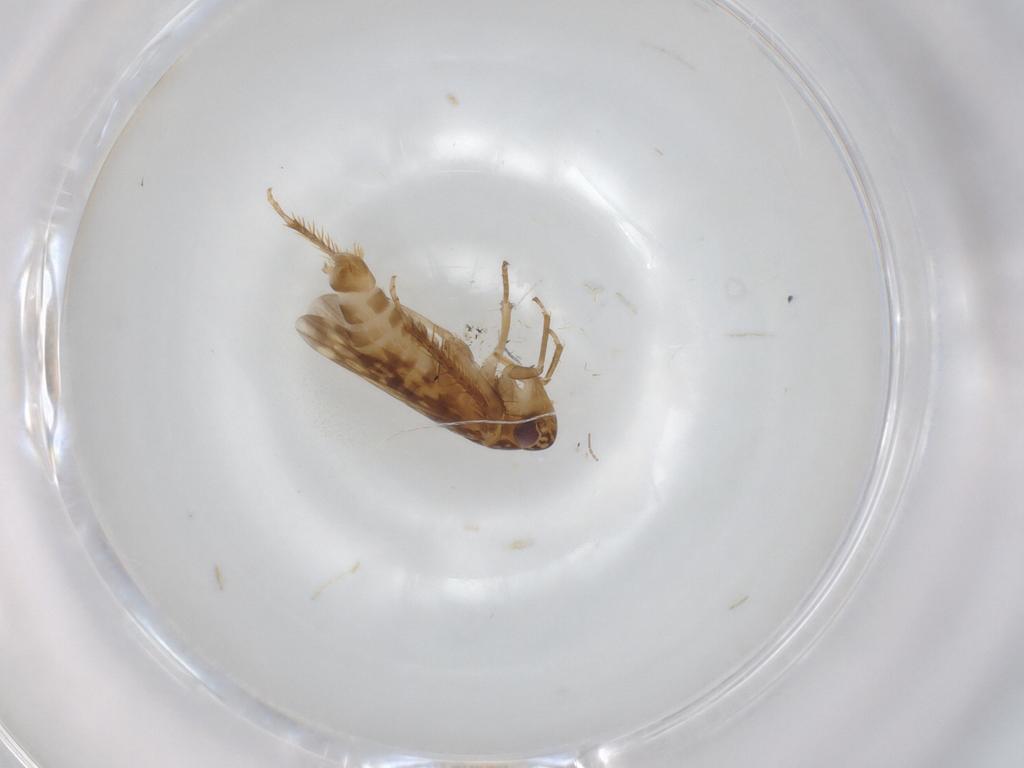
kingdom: Animalia
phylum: Arthropoda
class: Insecta
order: Hemiptera
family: Cicadellidae
